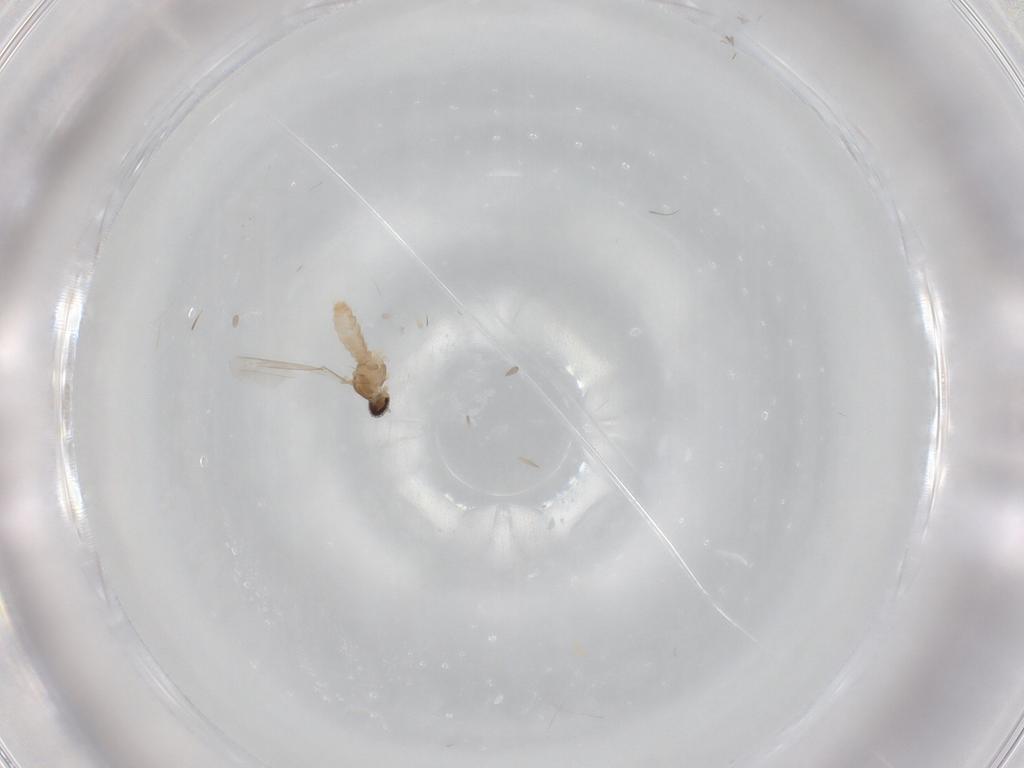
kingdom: Animalia
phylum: Arthropoda
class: Insecta
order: Diptera
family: Cecidomyiidae
